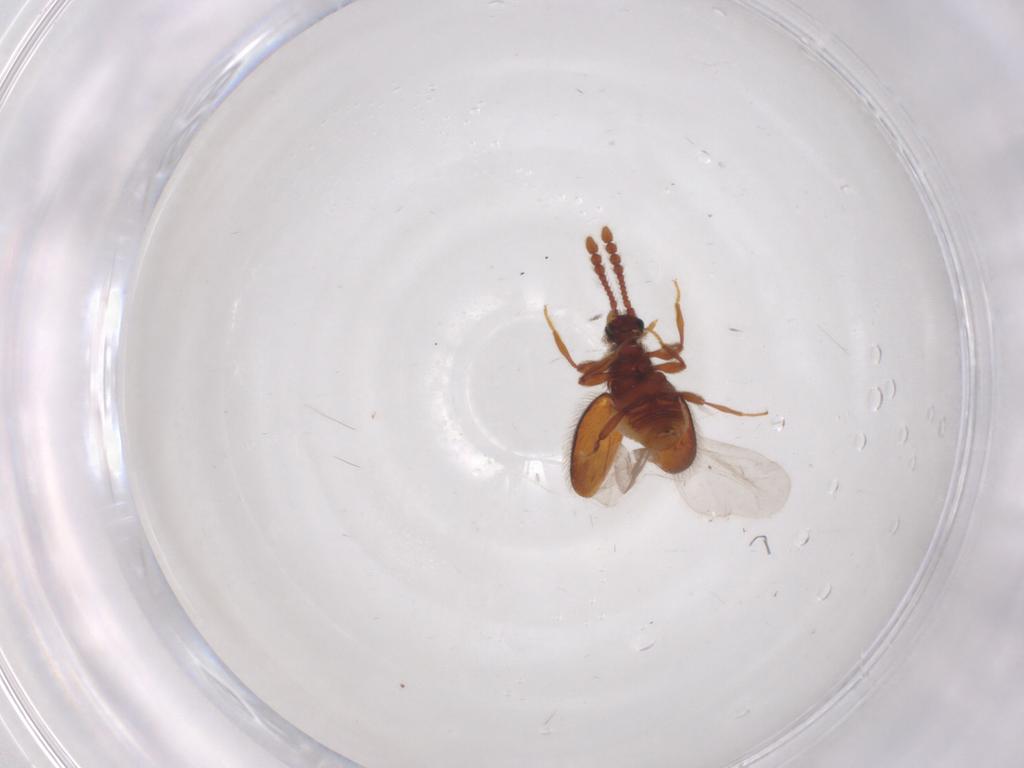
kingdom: Animalia
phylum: Arthropoda
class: Insecta
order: Coleoptera
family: Staphylinidae
